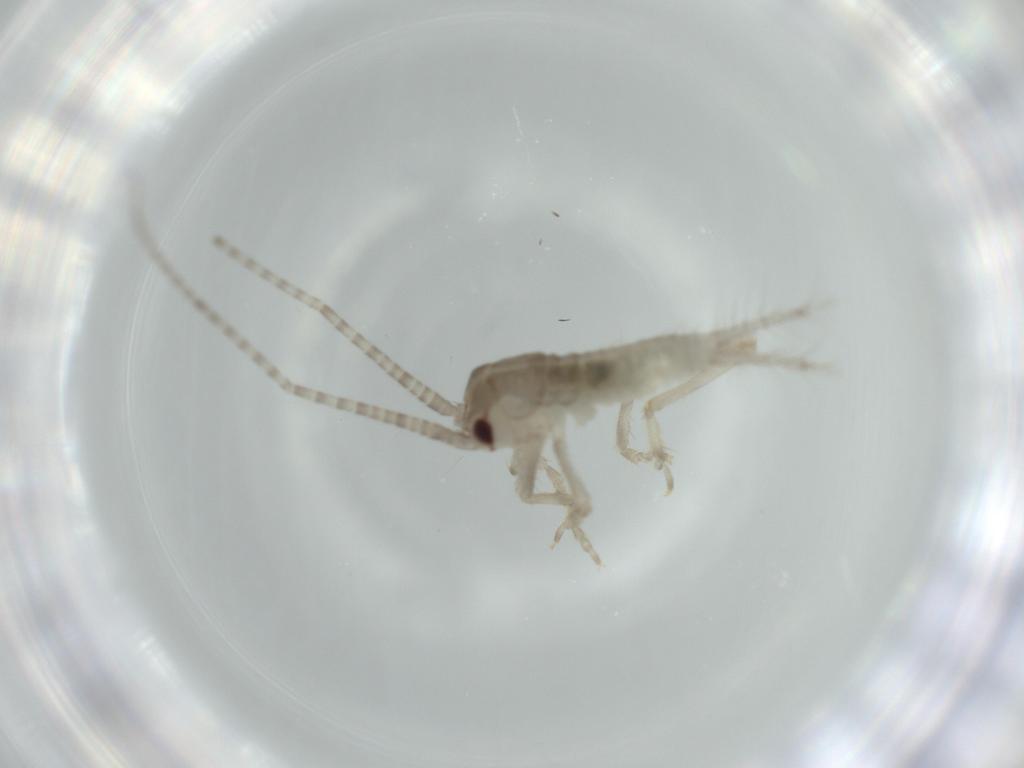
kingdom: Animalia
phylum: Arthropoda
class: Insecta
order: Orthoptera
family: Gryllidae
